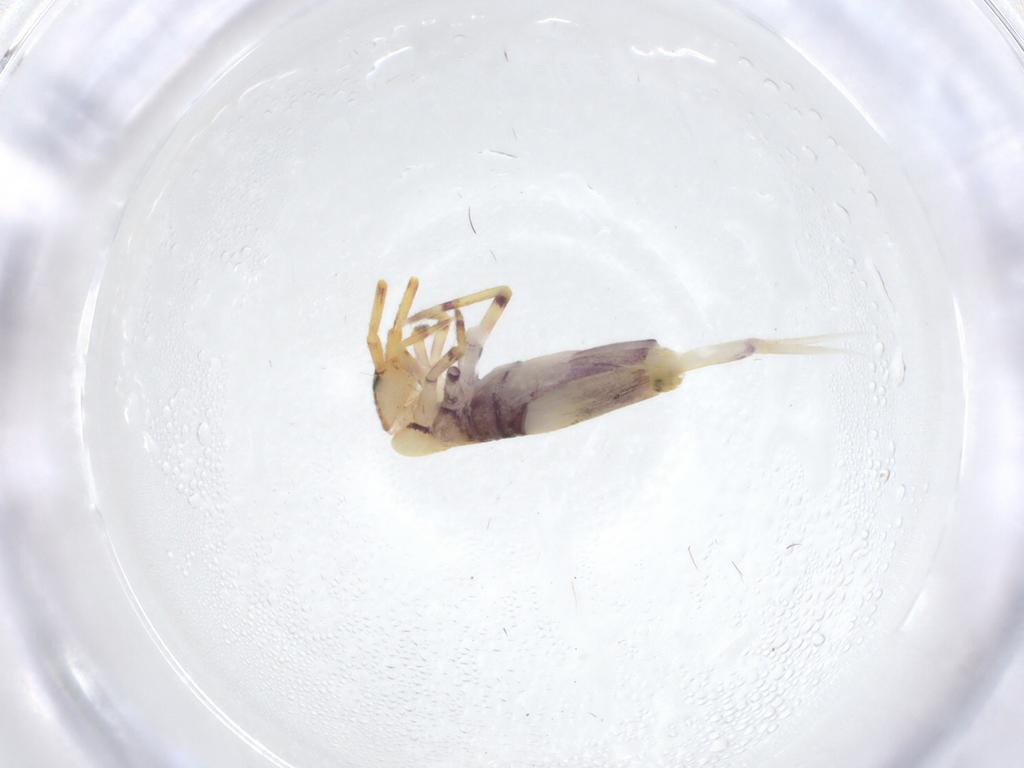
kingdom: Animalia
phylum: Arthropoda
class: Collembola
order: Entomobryomorpha
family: Entomobryidae
